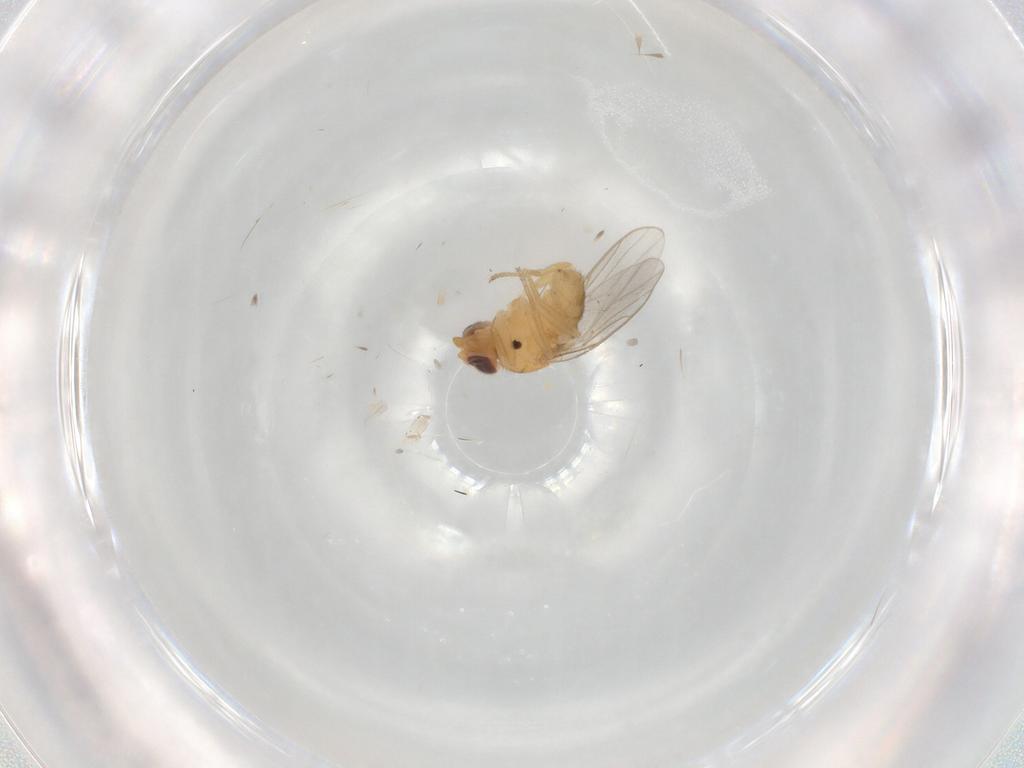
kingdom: Animalia
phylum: Arthropoda
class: Insecta
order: Diptera
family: Chloropidae
